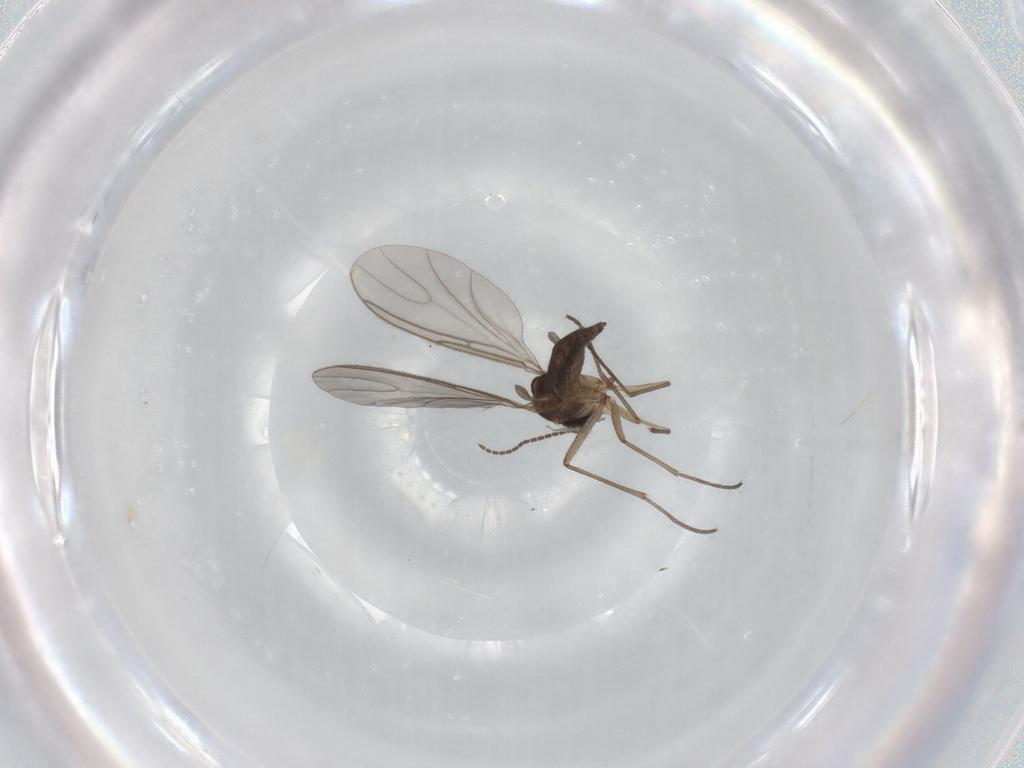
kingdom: Animalia
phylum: Arthropoda
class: Insecta
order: Diptera
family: Sciaridae
